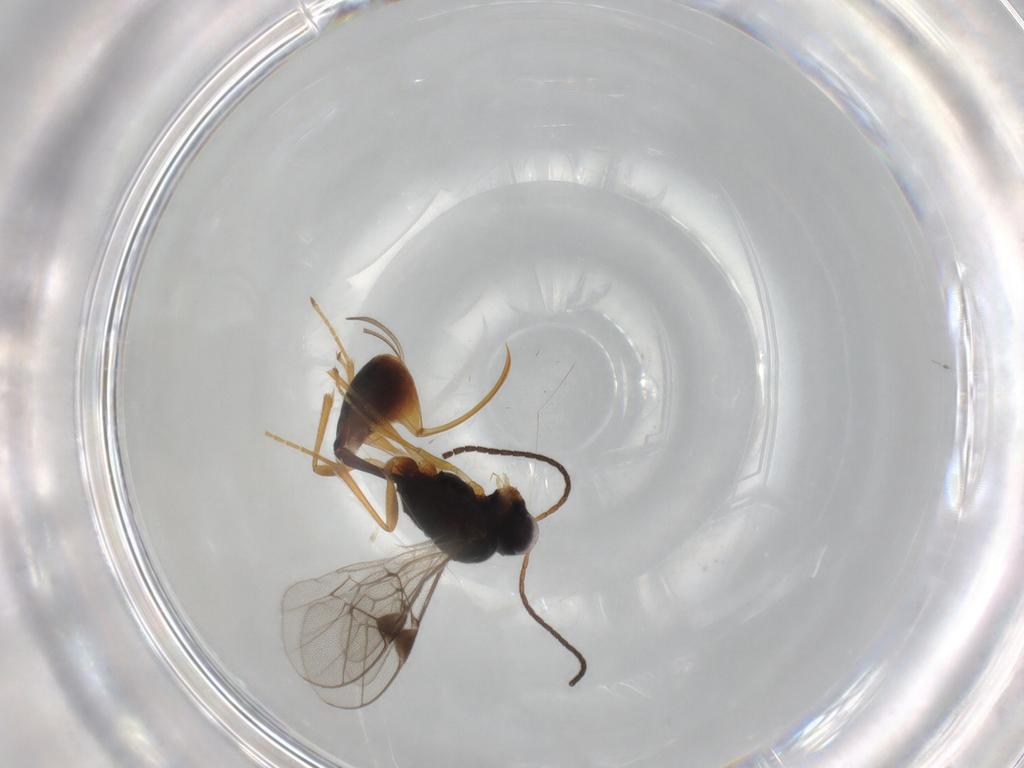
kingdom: Animalia
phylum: Arthropoda
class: Insecta
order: Hymenoptera
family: Ichneumonidae
